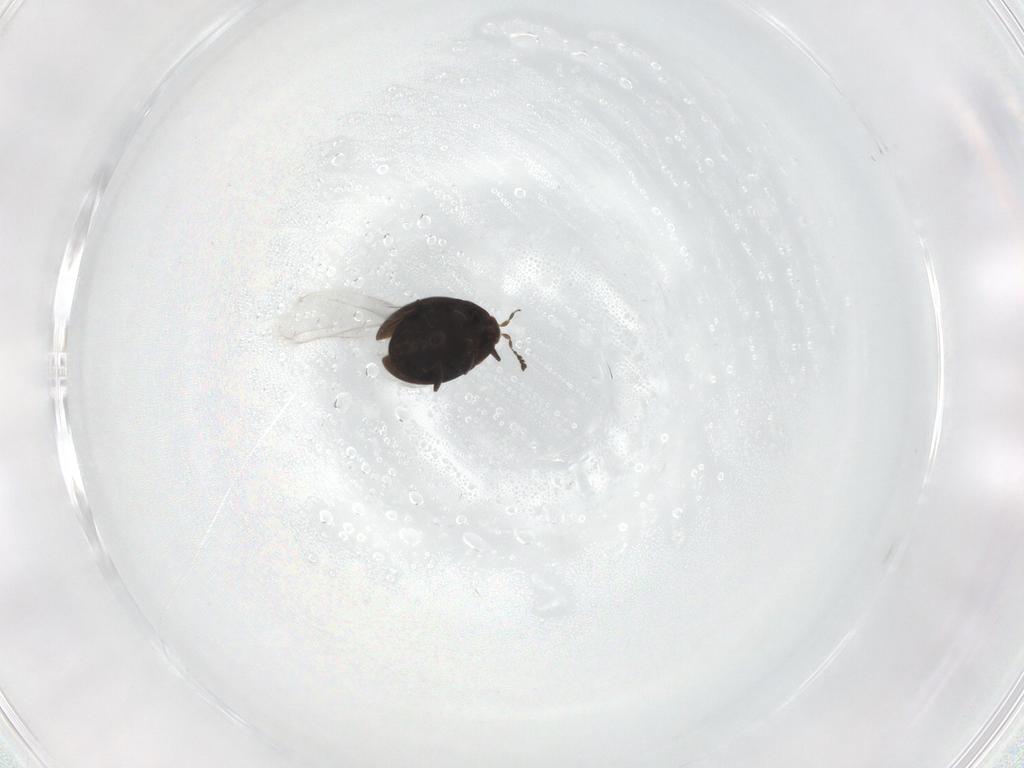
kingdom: Animalia
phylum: Arthropoda
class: Insecta
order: Coleoptera
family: Corylophidae
